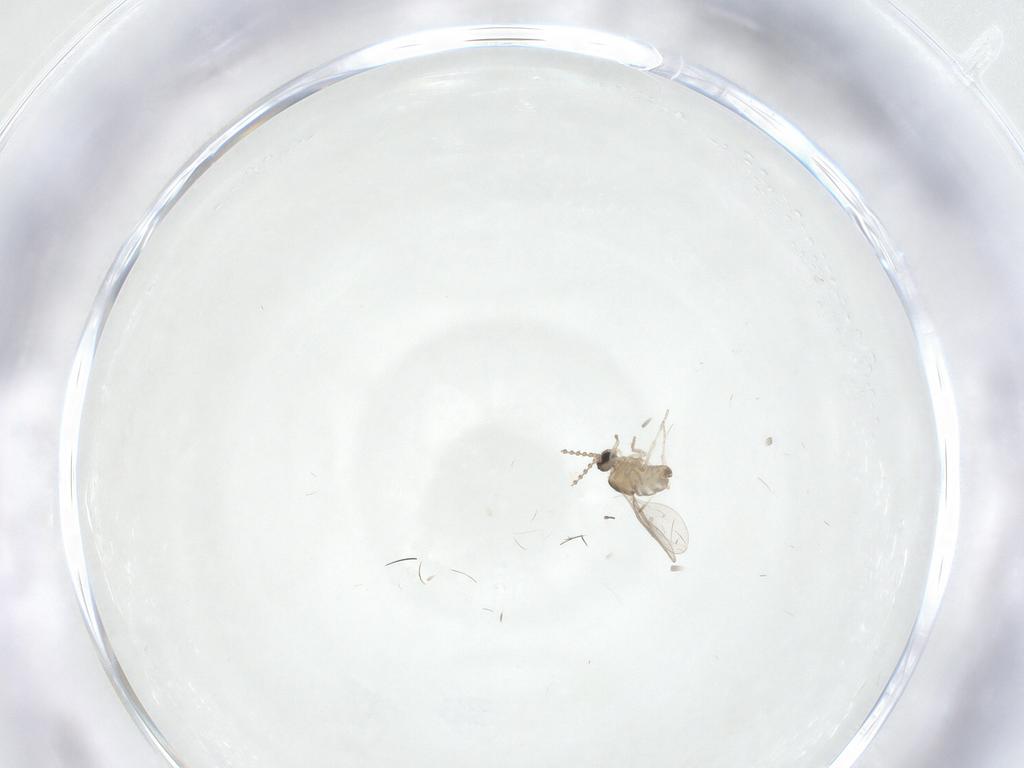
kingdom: Animalia
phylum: Arthropoda
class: Insecta
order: Diptera
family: Cecidomyiidae
